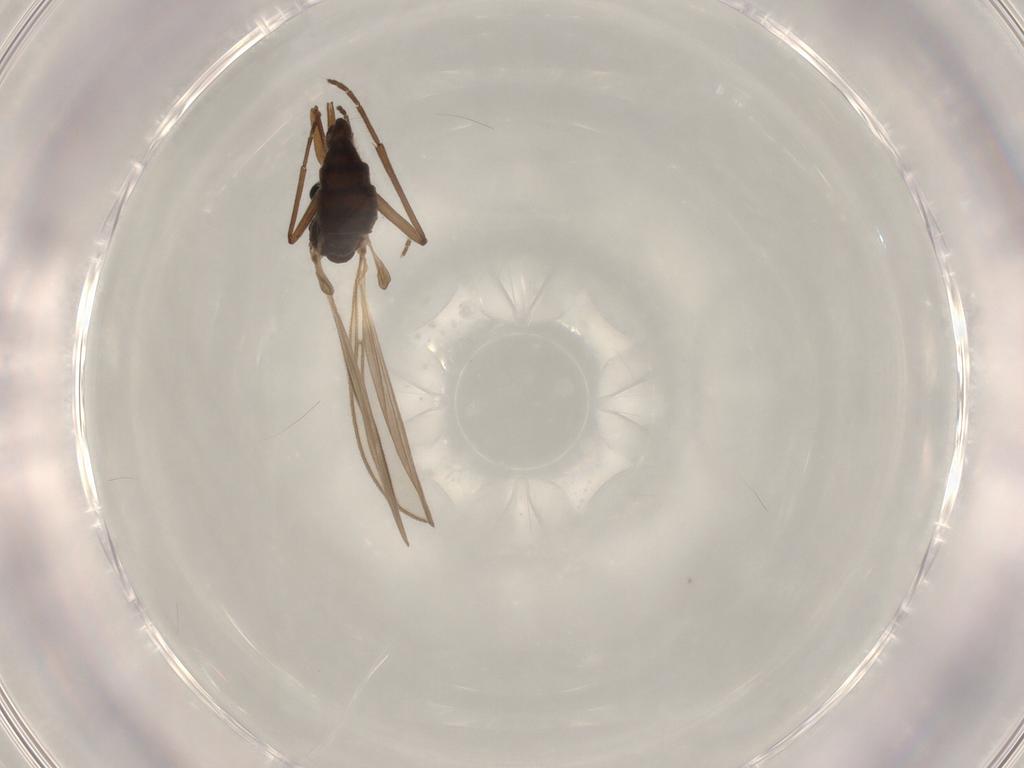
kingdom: Animalia
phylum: Arthropoda
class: Insecta
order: Diptera
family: Sciaridae
